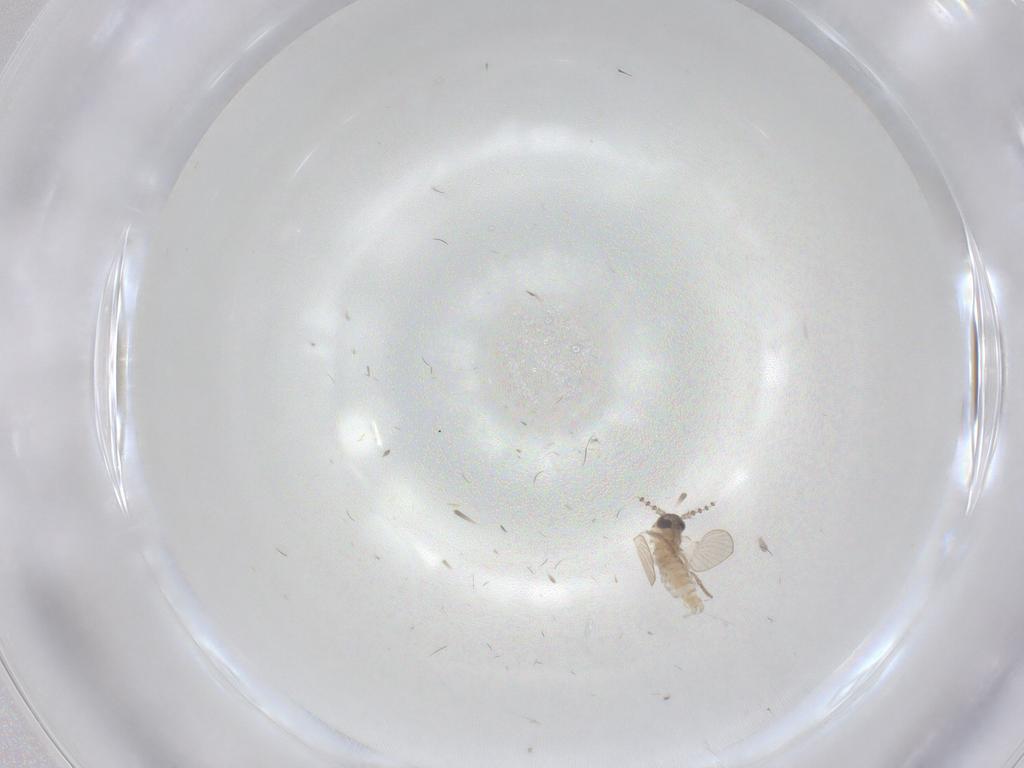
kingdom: Animalia
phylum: Arthropoda
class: Insecta
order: Diptera
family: Psychodidae
